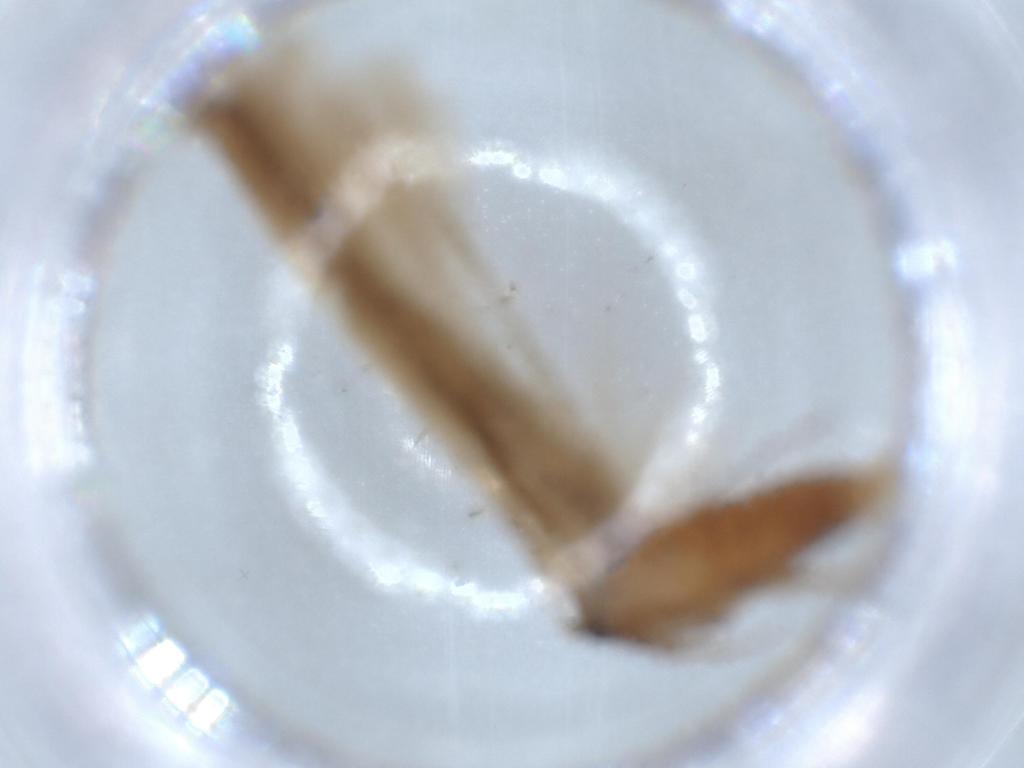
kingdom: Animalia
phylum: Arthropoda
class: Insecta
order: Lepidoptera
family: Stathmopodidae
